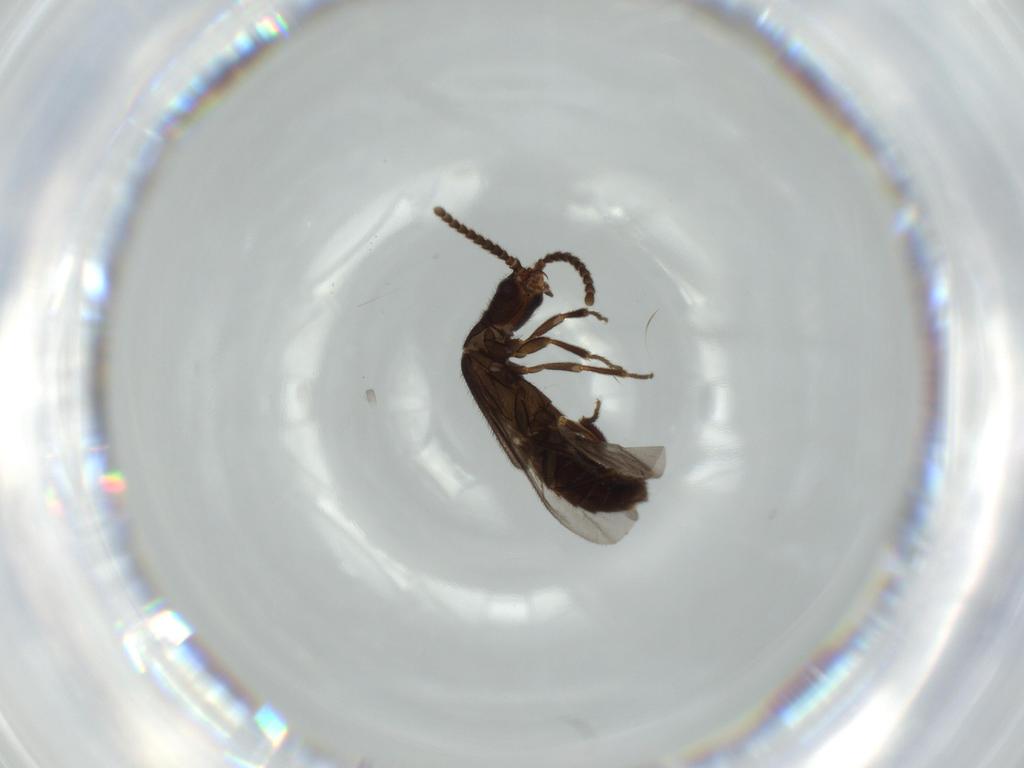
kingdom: Animalia
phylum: Arthropoda
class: Insecta
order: Coleoptera
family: Omethidae
